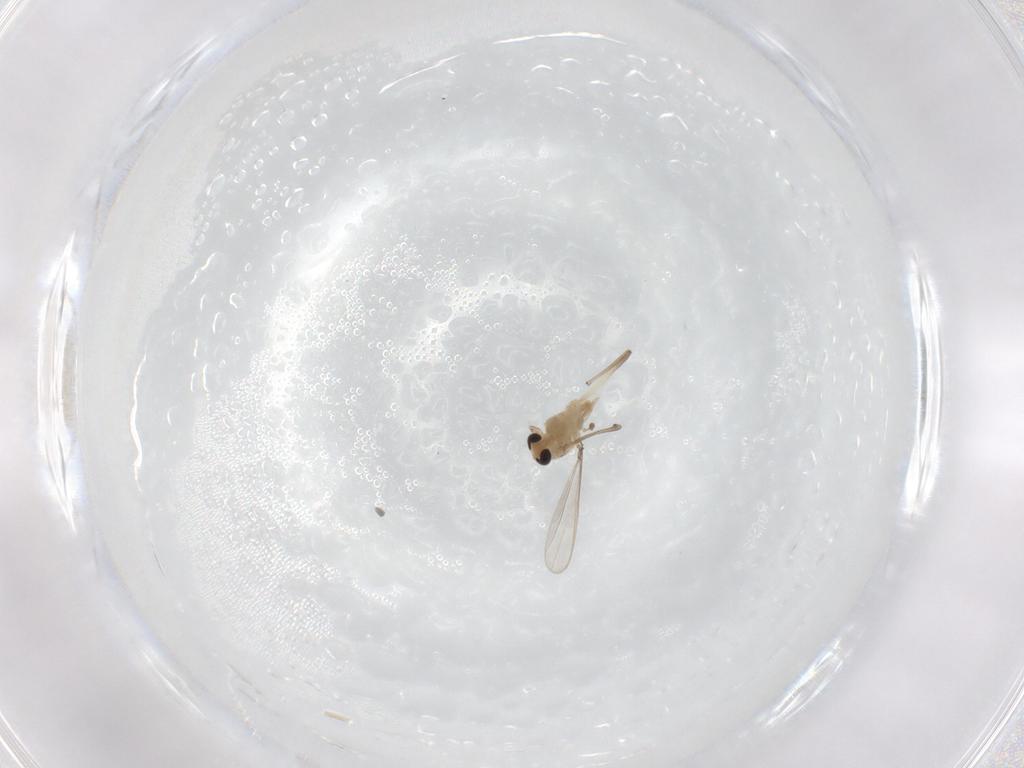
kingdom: Animalia
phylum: Arthropoda
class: Insecta
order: Diptera
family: Chironomidae
